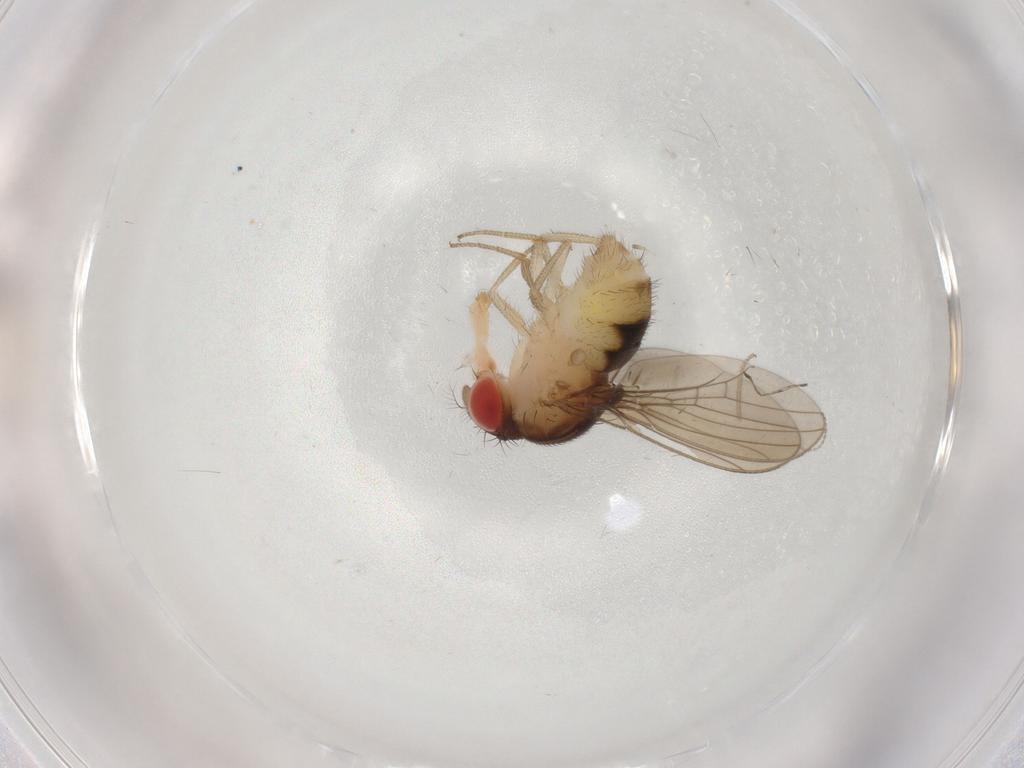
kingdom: Animalia
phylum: Arthropoda
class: Insecta
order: Diptera
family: Drosophilidae
